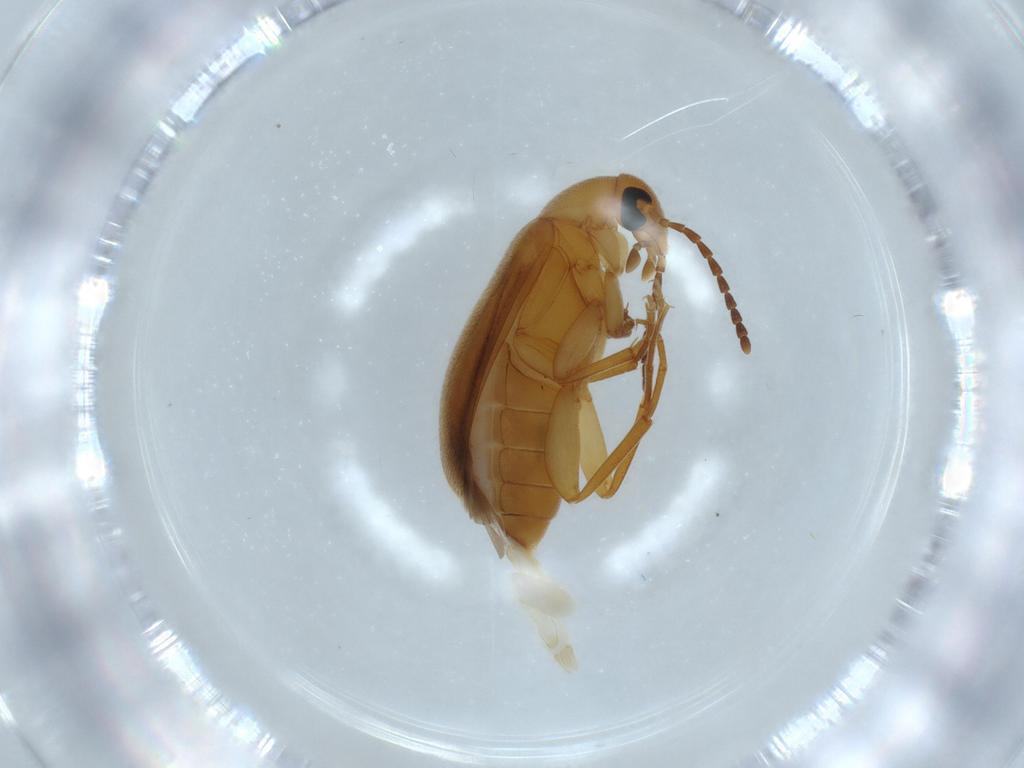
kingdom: Animalia
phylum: Arthropoda
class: Insecta
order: Coleoptera
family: Scraptiidae
